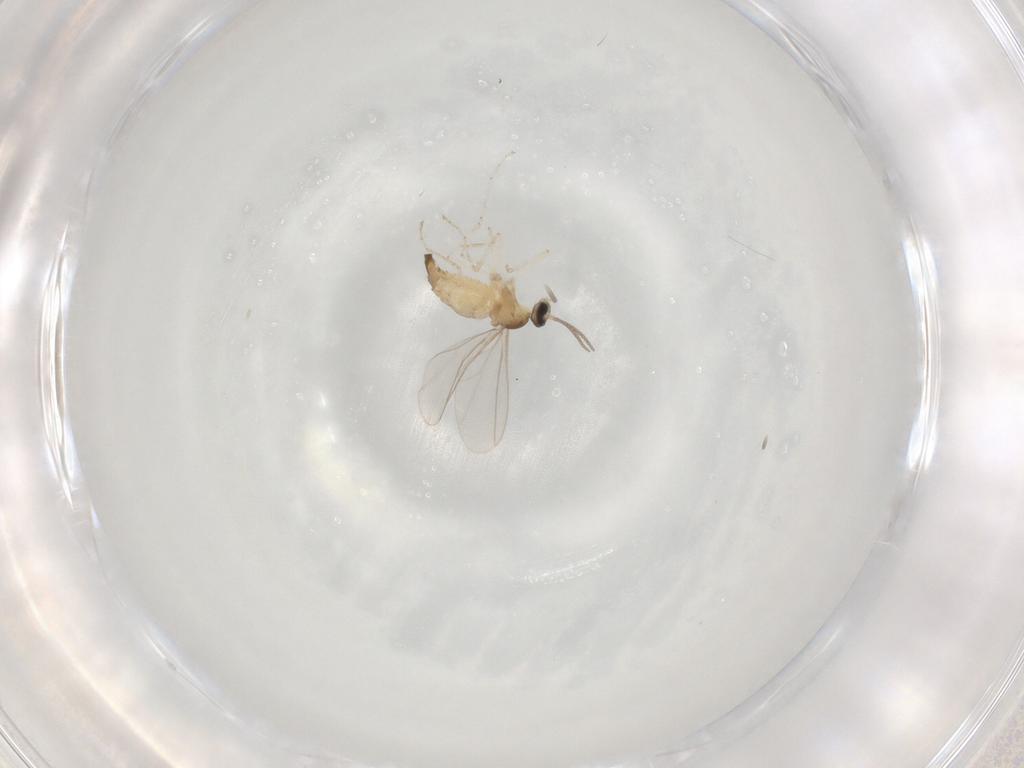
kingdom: Animalia
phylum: Arthropoda
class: Insecta
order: Diptera
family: Cecidomyiidae
